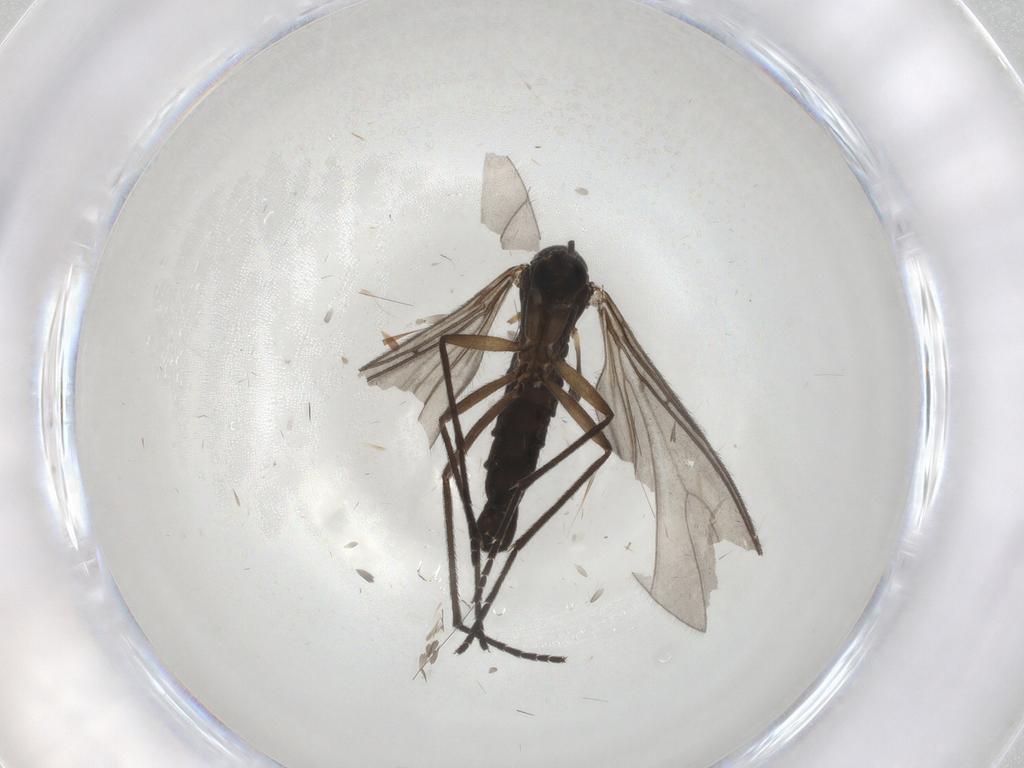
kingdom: Animalia
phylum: Arthropoda
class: Insecta
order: Diptera
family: Sciaridae
